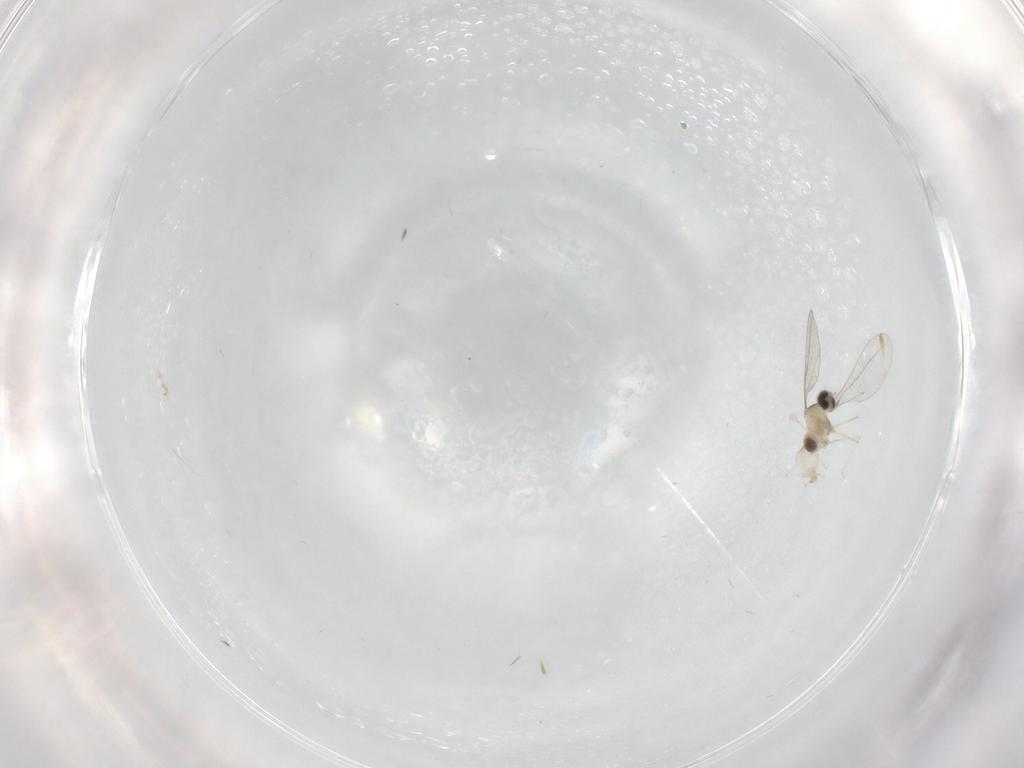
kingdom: Animalia
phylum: Arthropoda
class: Insecta
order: Diptera
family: Cecidomyiidae
